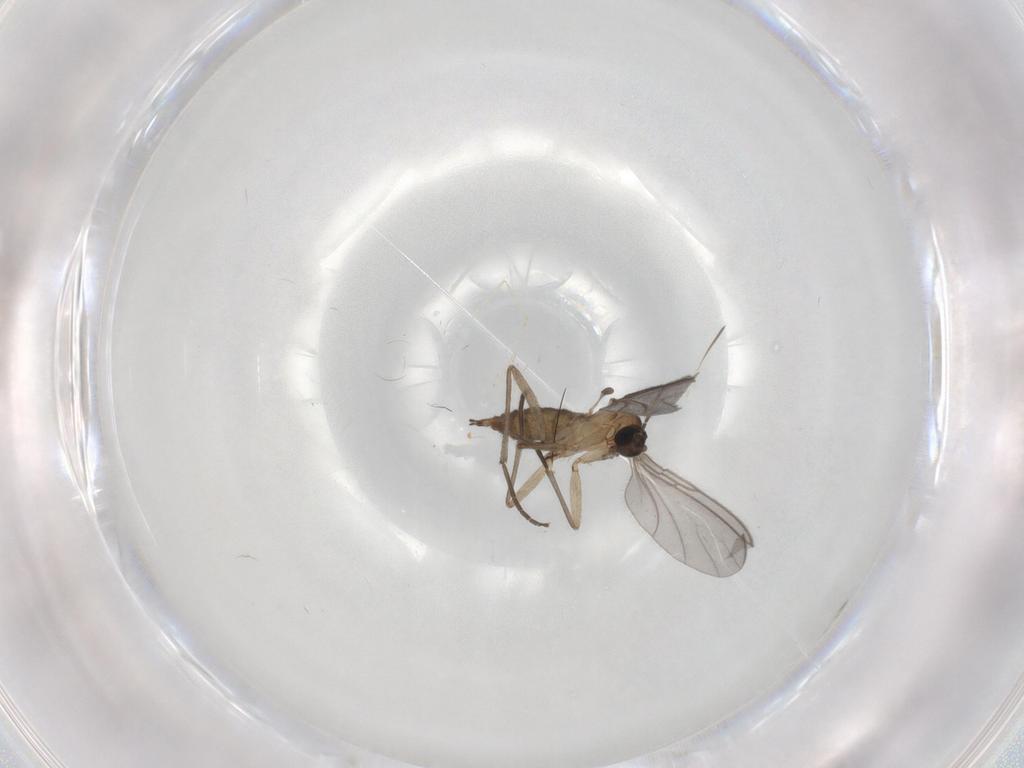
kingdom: Animalia
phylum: Arthropoda
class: Insecta
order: Diptera
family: Sciaridae
